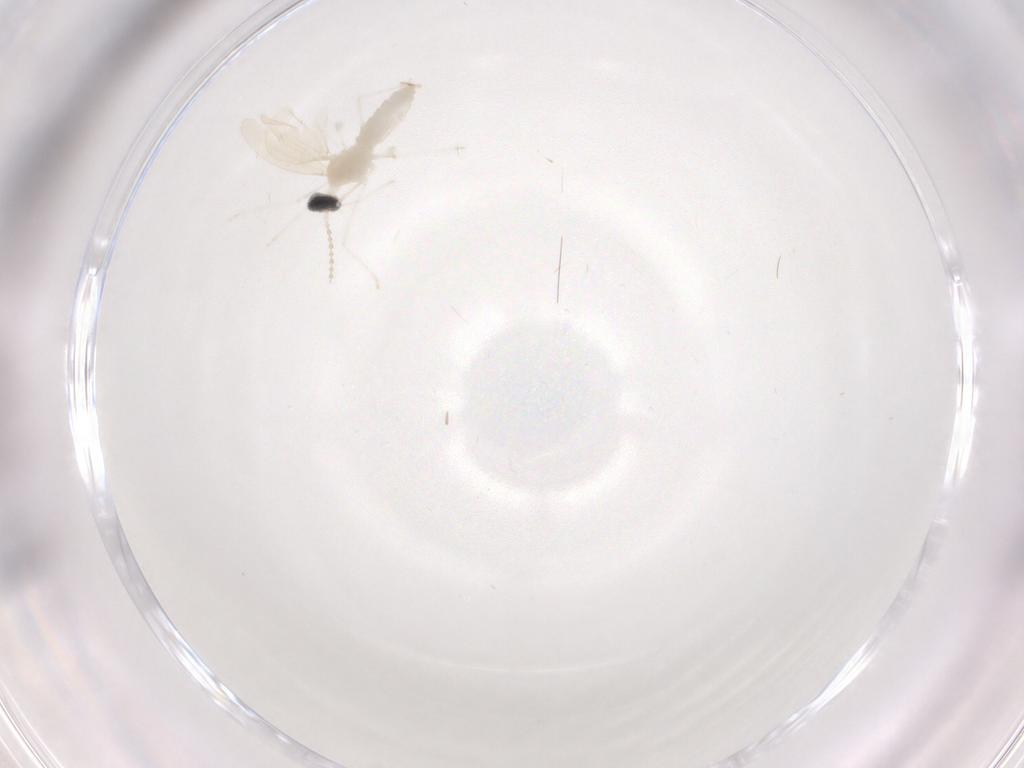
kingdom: Animalia
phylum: Arthropoda
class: Insecta
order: Diptera
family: Cecidomyiidae
